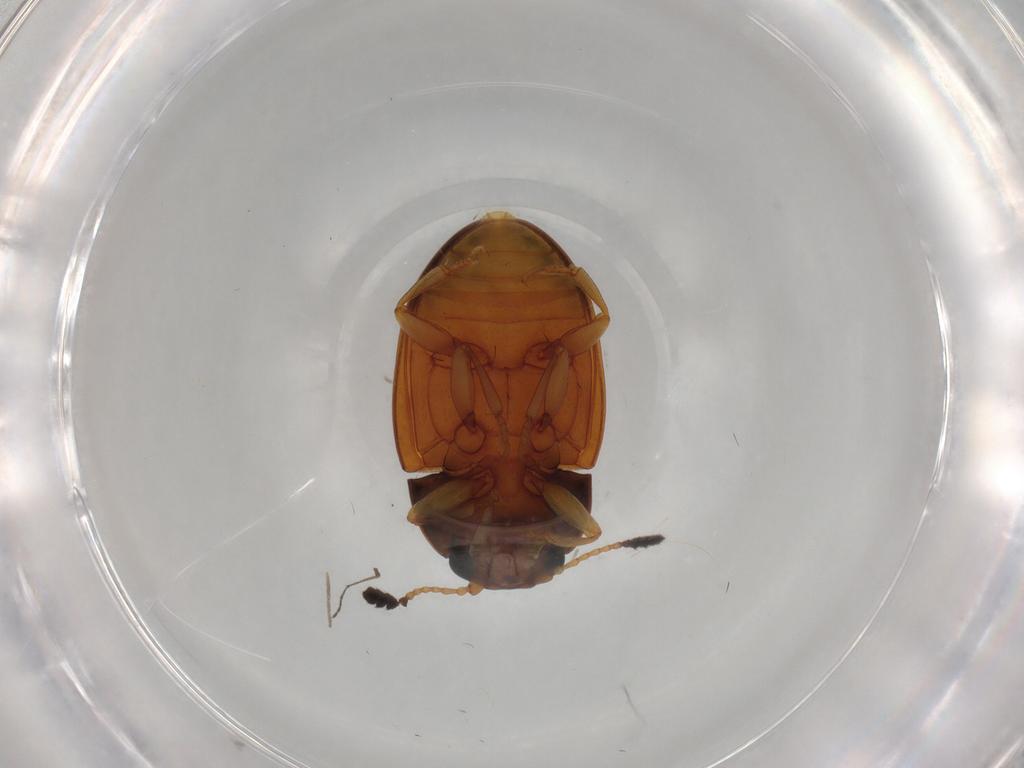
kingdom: Animalia
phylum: Arthropoda
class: Insecta
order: Coleoptera
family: Erotylidae
